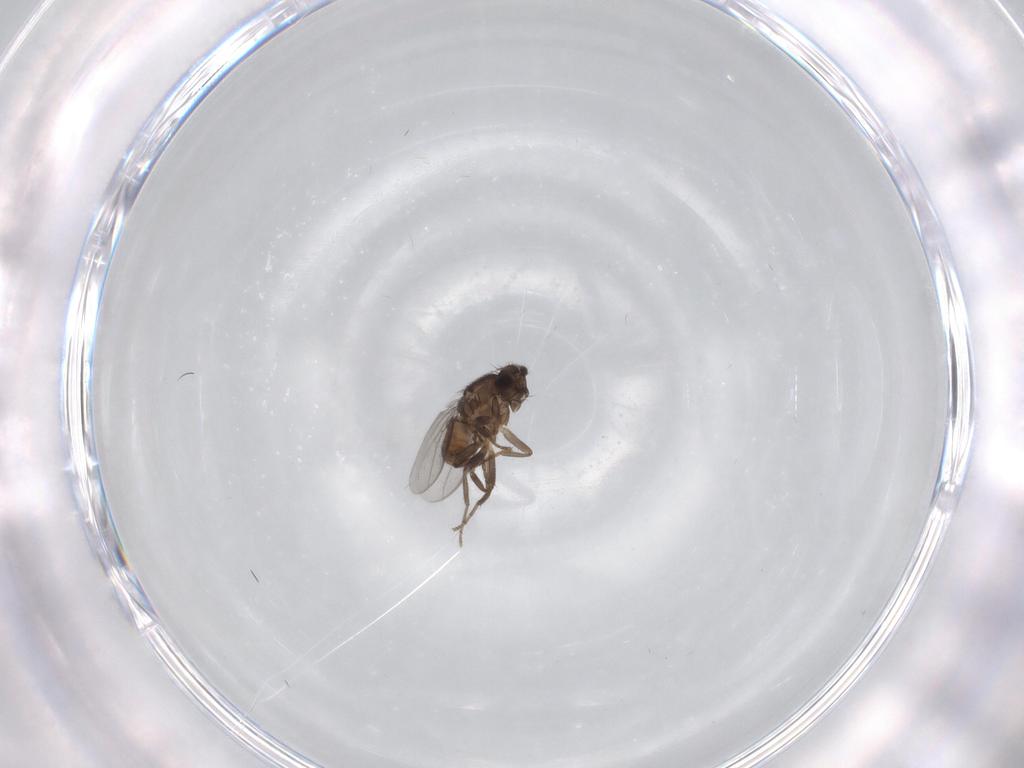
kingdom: Animalia
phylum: Arthropoda
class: Insecta
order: Diptera
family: Sphaeroceridae
